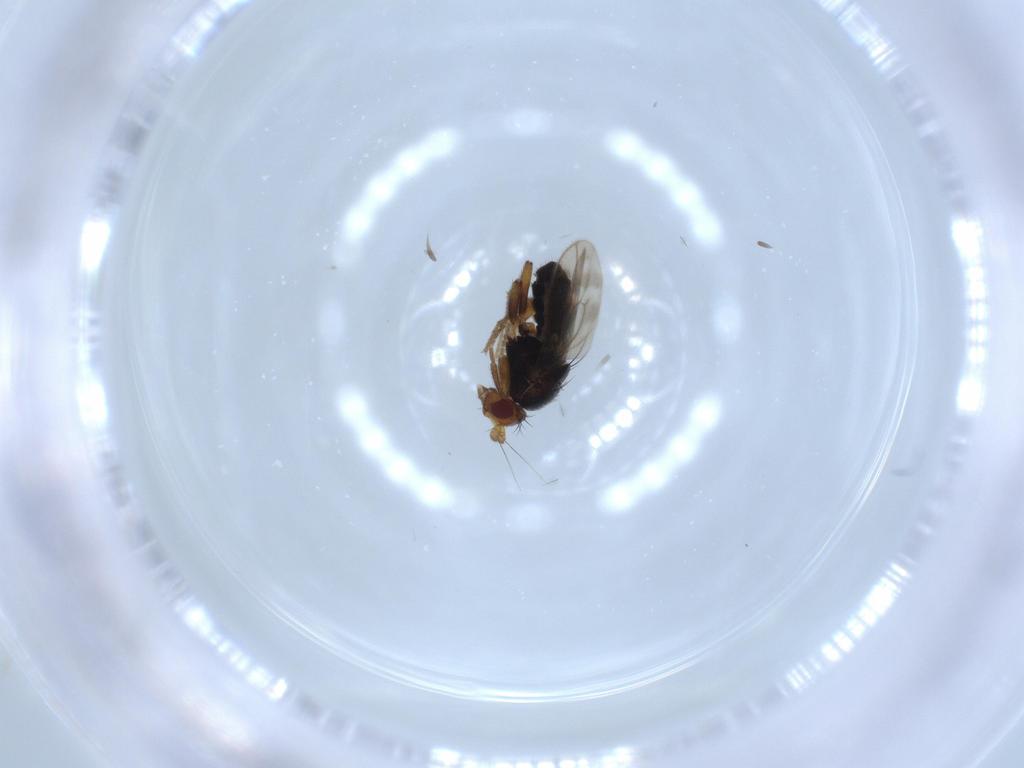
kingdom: Animalia
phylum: Arthropoda
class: Insecta
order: Diptera
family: Sphaeroceridae
